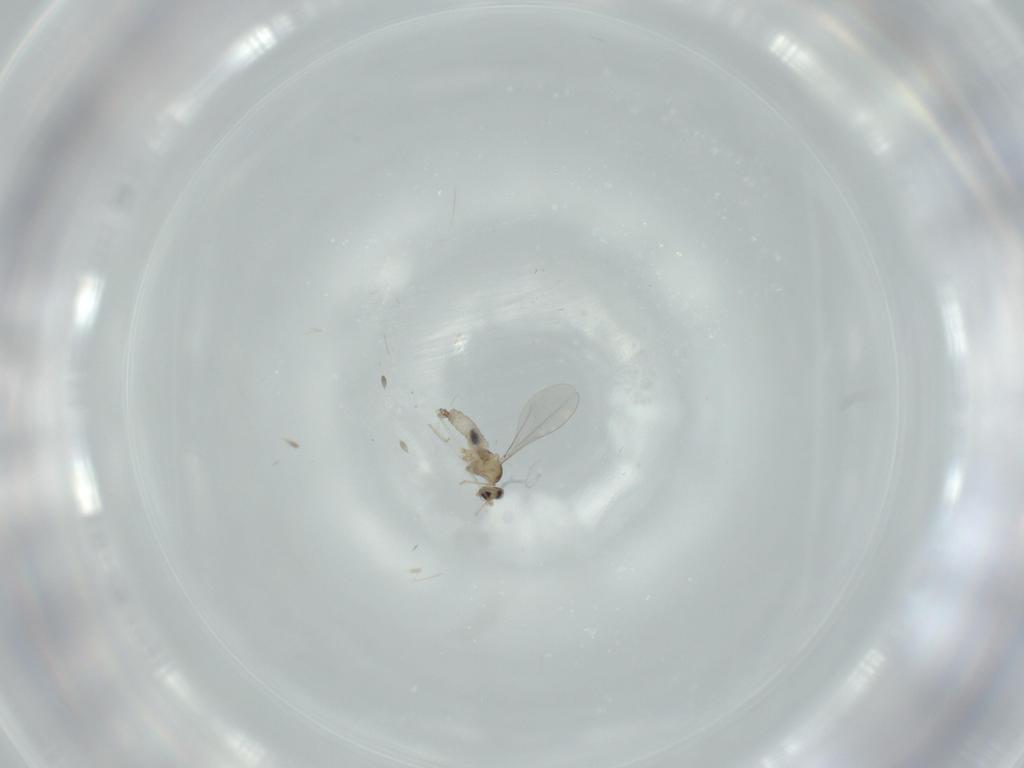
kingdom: Animalia
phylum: Arthropoda
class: Insecta
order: Diptera
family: Cecidomyiidae
